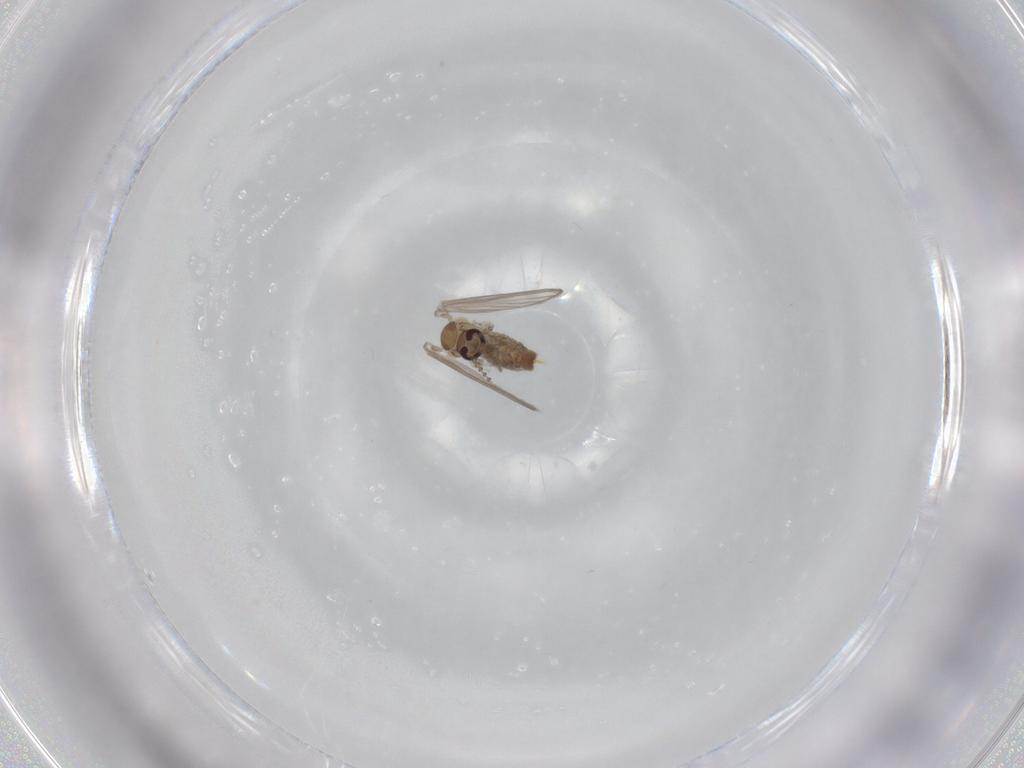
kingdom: Animalia
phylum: Arthropoda
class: Insecta
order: Diptera
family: Psychodidae
